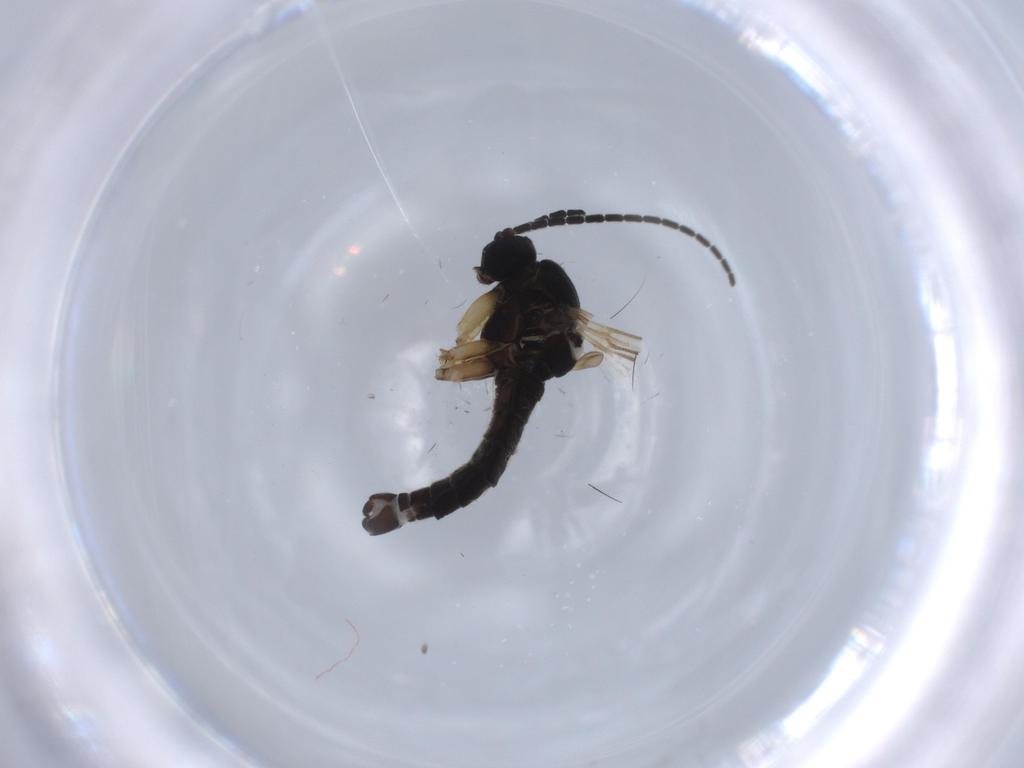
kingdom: Animalia
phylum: Arthropoda
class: Insecta
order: Diptera
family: Sciaridae
